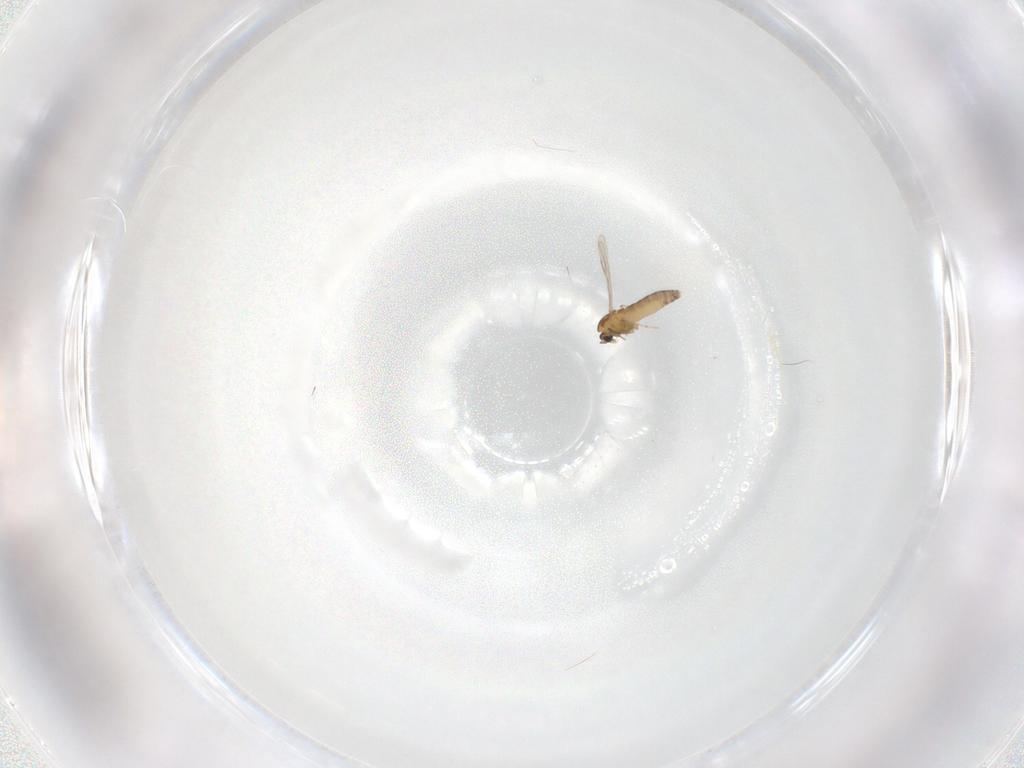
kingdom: Animalia
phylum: Arthropoda
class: Insecta
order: Diptera
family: Chironomidae
